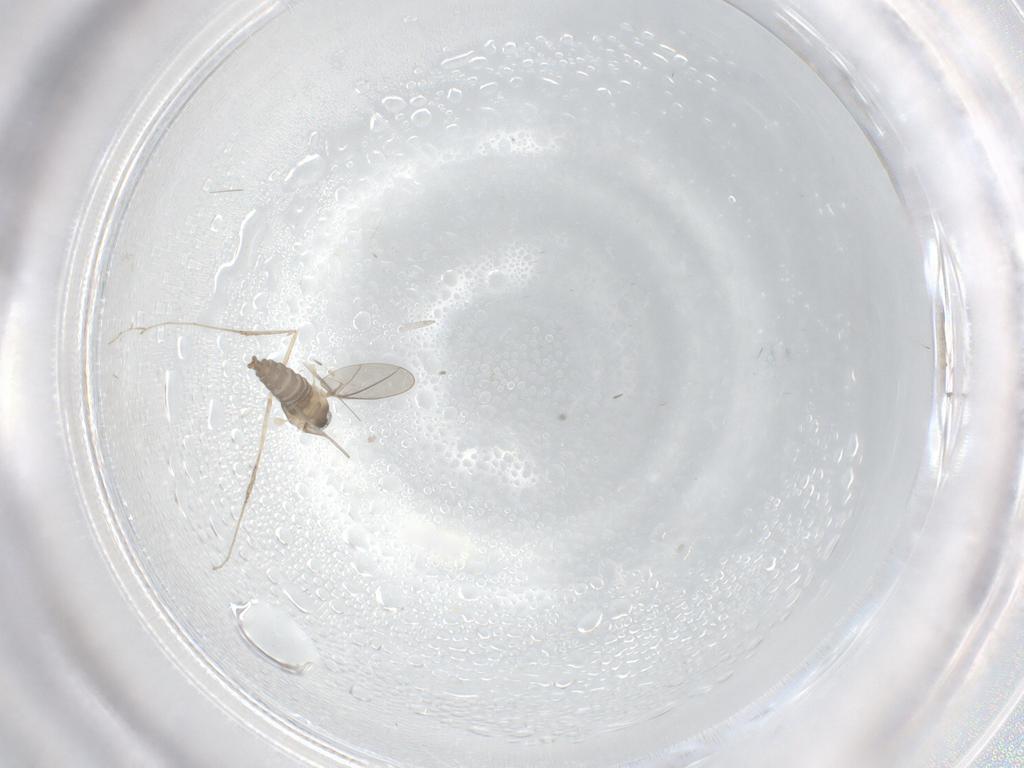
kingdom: Animalia
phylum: Arthropoda
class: Insecta
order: Diptera
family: Cecidomyiidae
